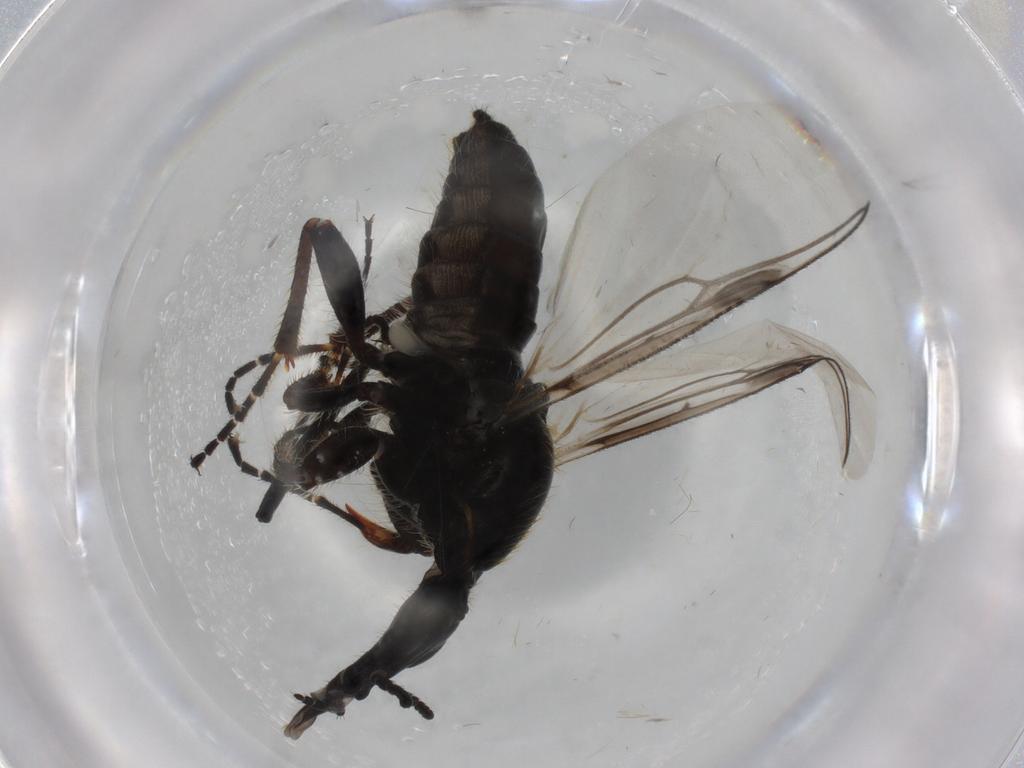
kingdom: Animalia
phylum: Arthropoda
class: Insecta
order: Diptera
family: Bibionidae
